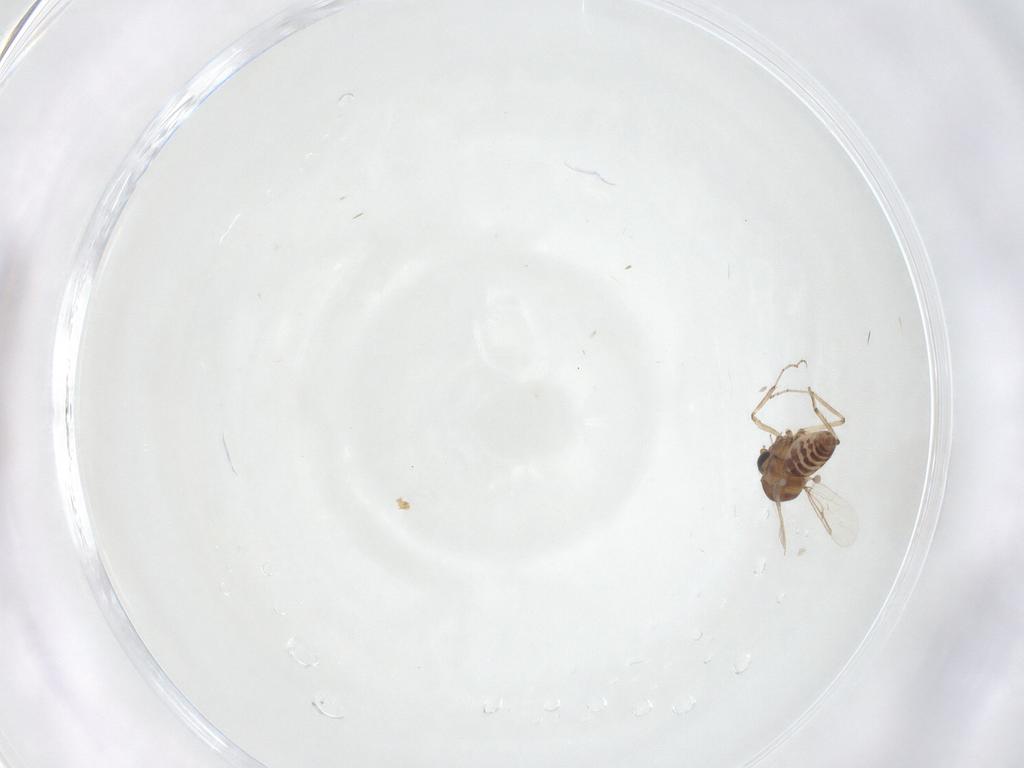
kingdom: Animalia
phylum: Arthropoda
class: Insecta
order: Diptera
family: Ceratopogonidae
